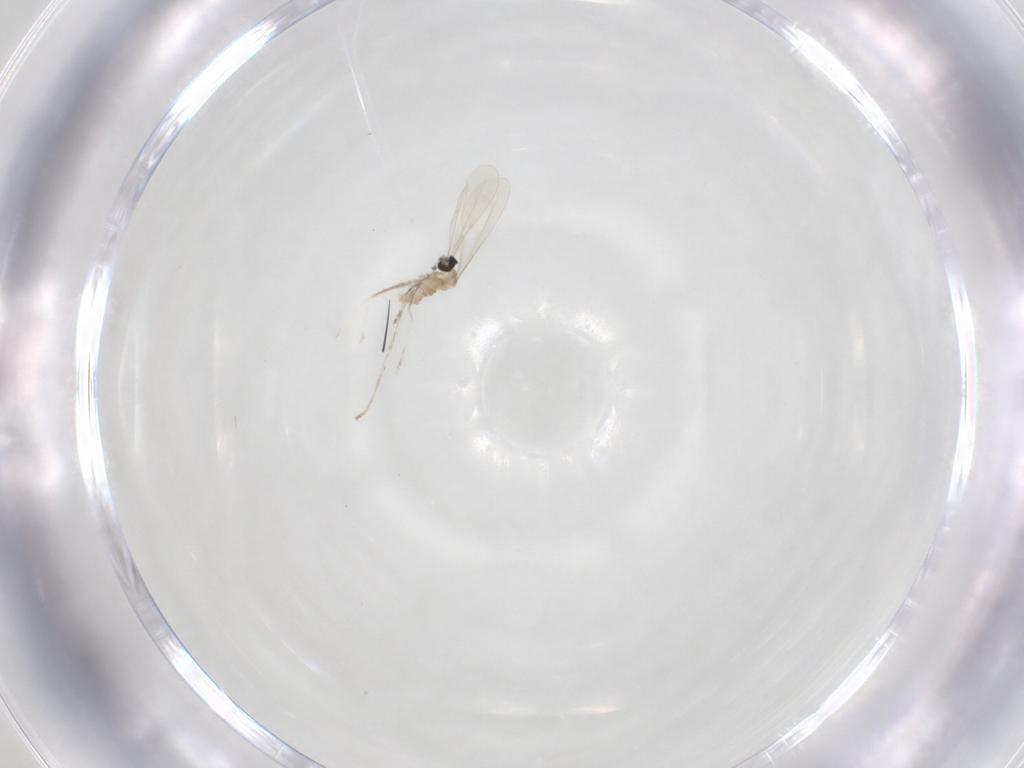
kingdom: Animalia
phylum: Arthropoda
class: Insecta
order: Diptera
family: Cecidomyiidae
